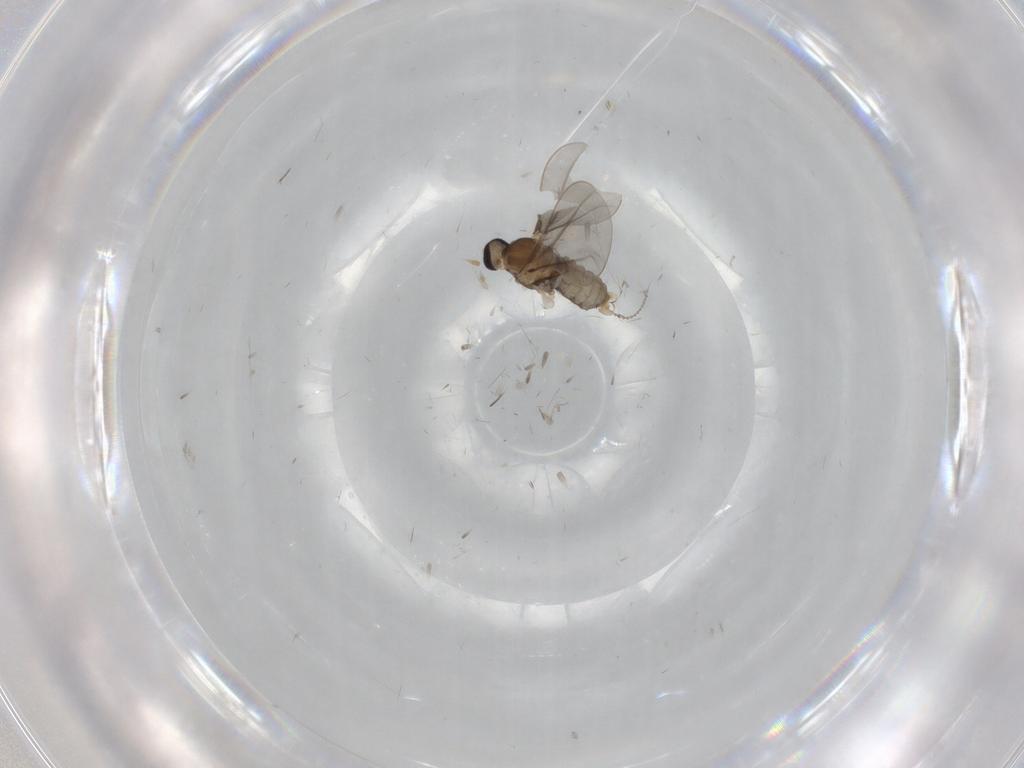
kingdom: Animalia
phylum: Arthropoda
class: Insecta
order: Diptera
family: Cecidomyiidae
